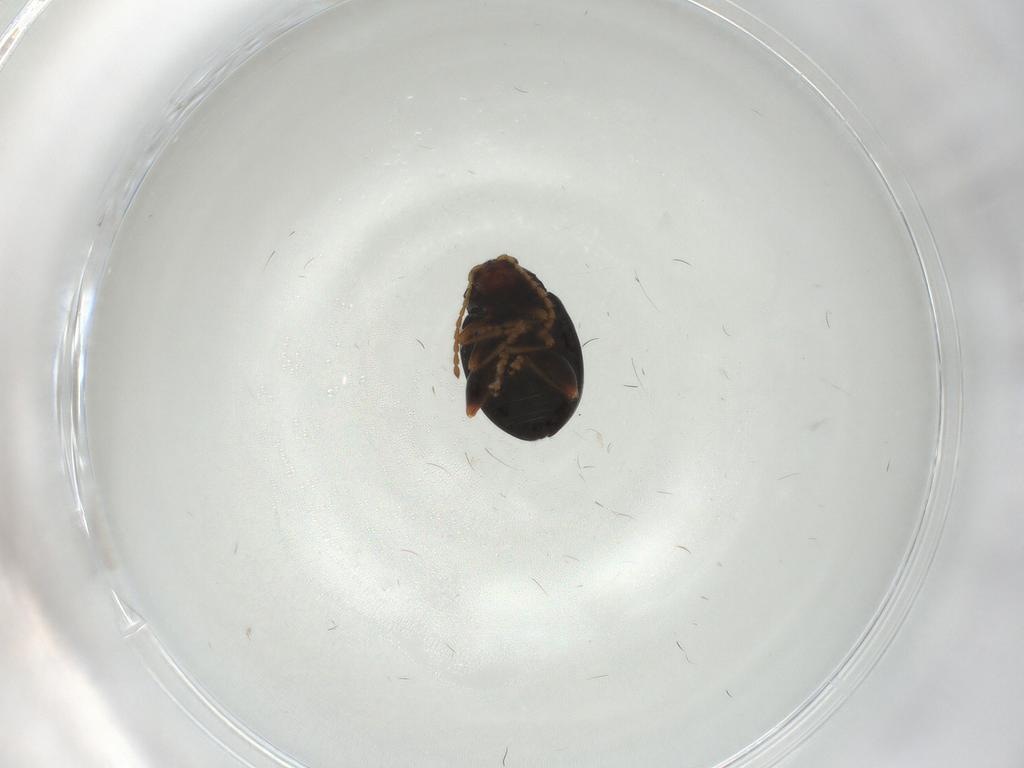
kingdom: Animalia
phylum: Arthropoda
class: Insecta
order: Coleoptera
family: Chrysomelidae
